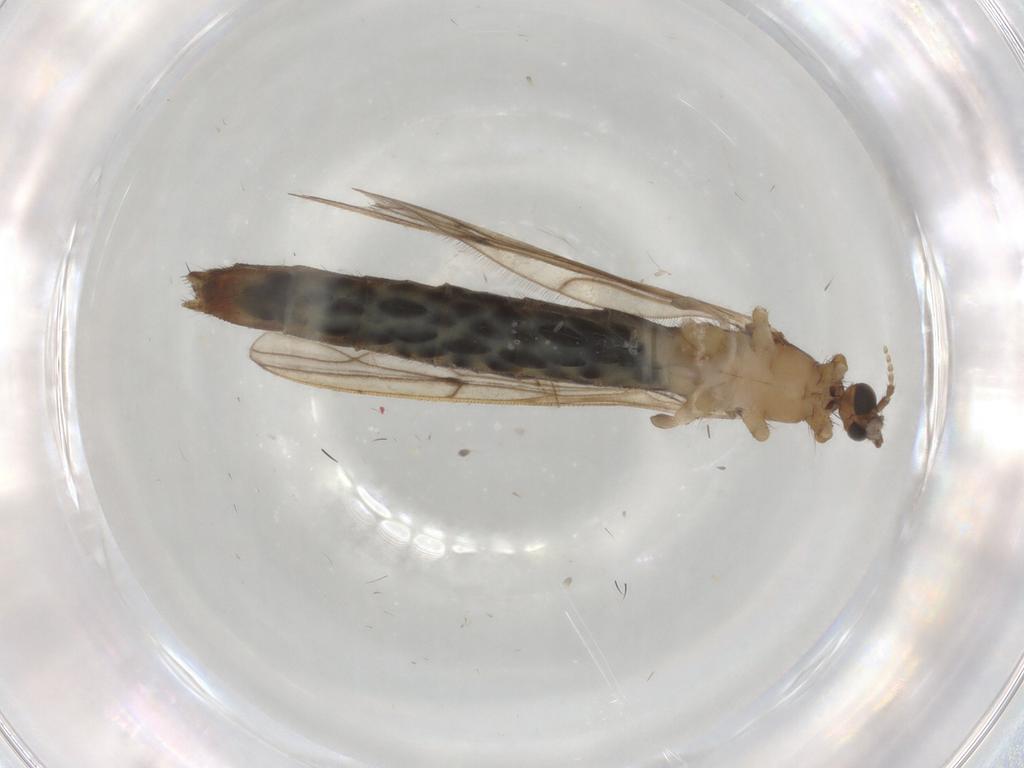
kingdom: Animalia
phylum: Arthropoda
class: Insecta
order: Diptera
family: Limoniidae
